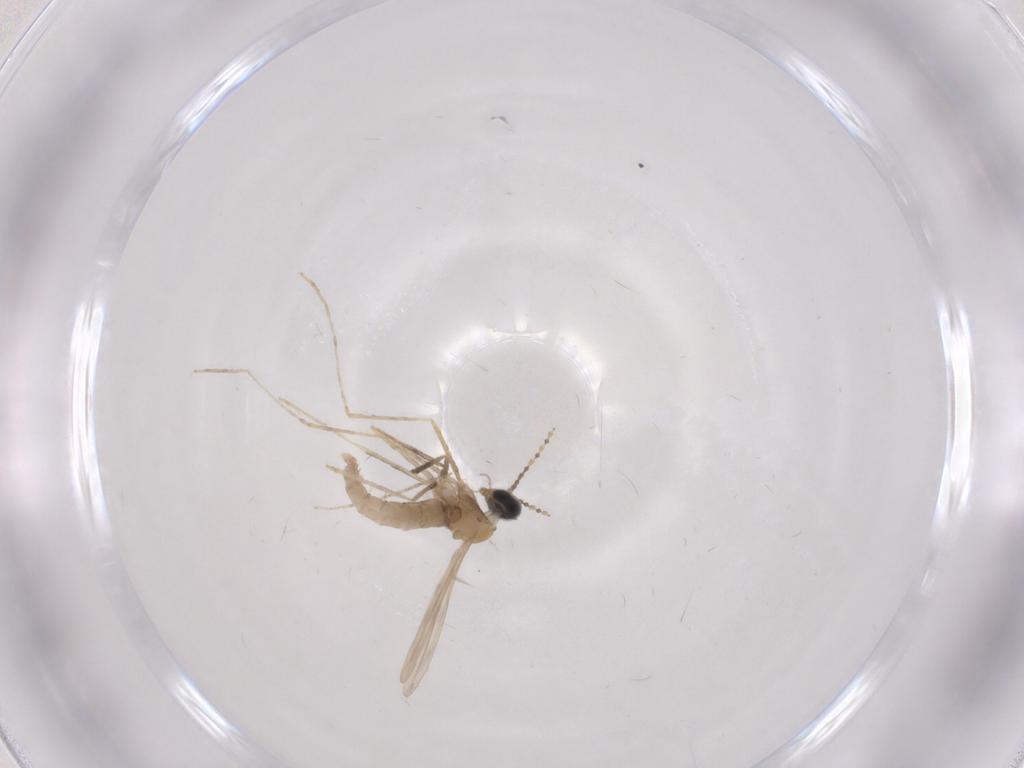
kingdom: Animalia
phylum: Arthropoda
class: Insecta
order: Diptera
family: Cecidomyiidae
